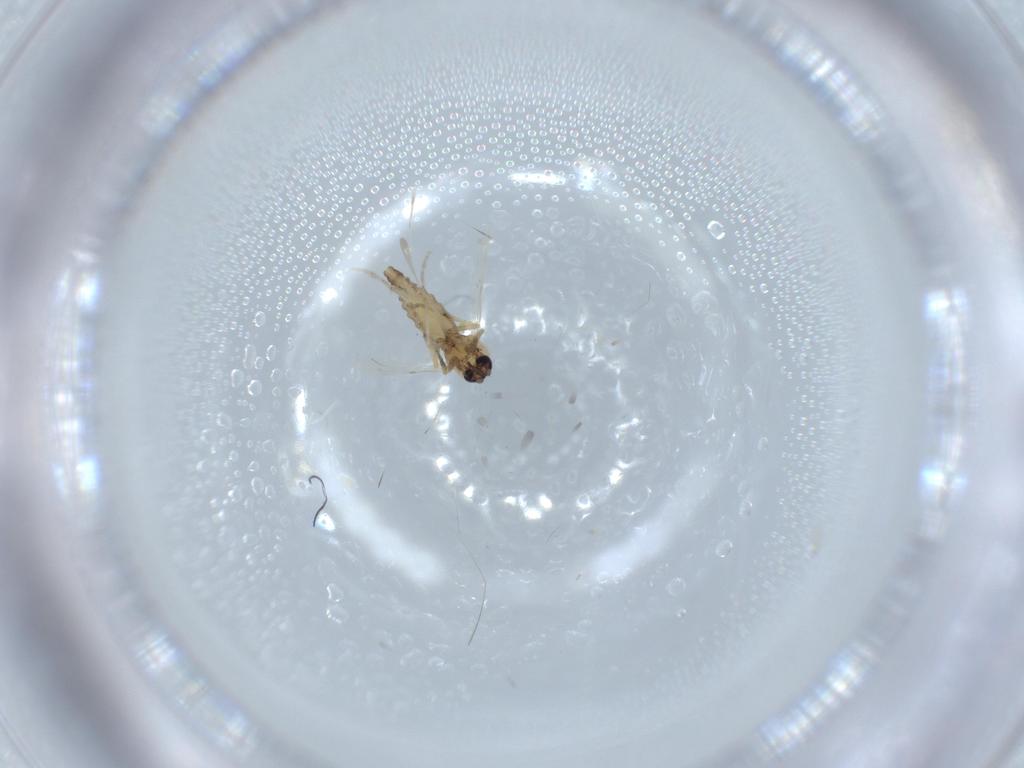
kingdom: Animalia
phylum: Arthropoda
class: Insecta
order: Diptera
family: Ceratopogonidae
